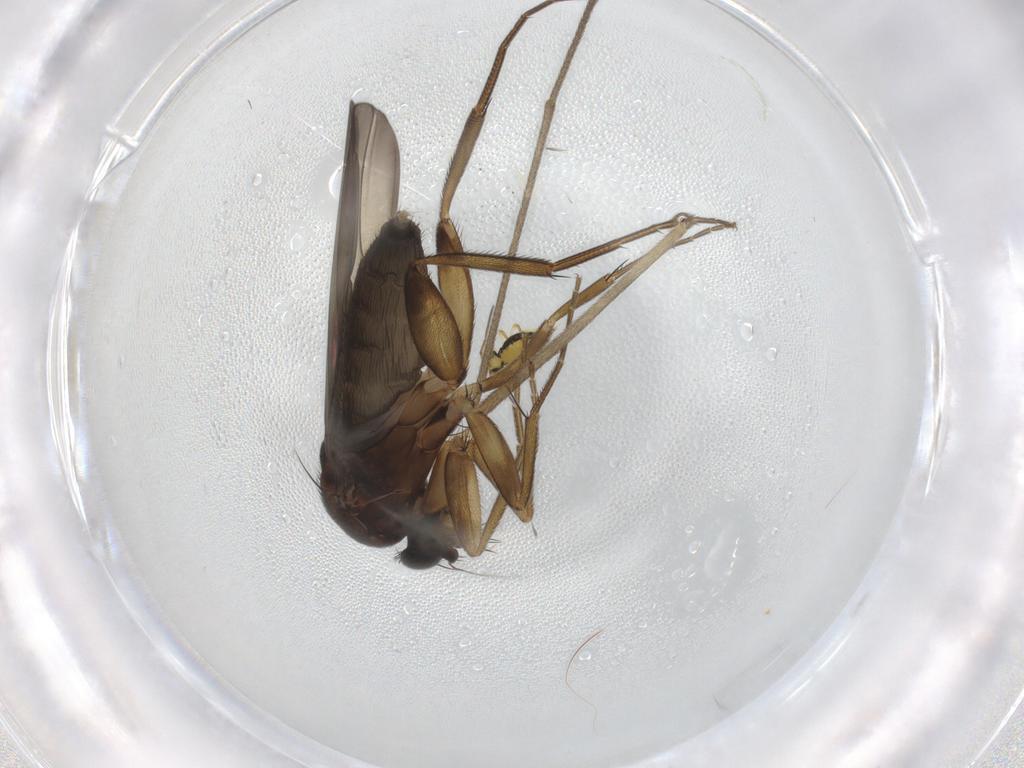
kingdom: Animalia
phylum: Arthropoda
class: Insecta
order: Diptera
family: Phoridae
